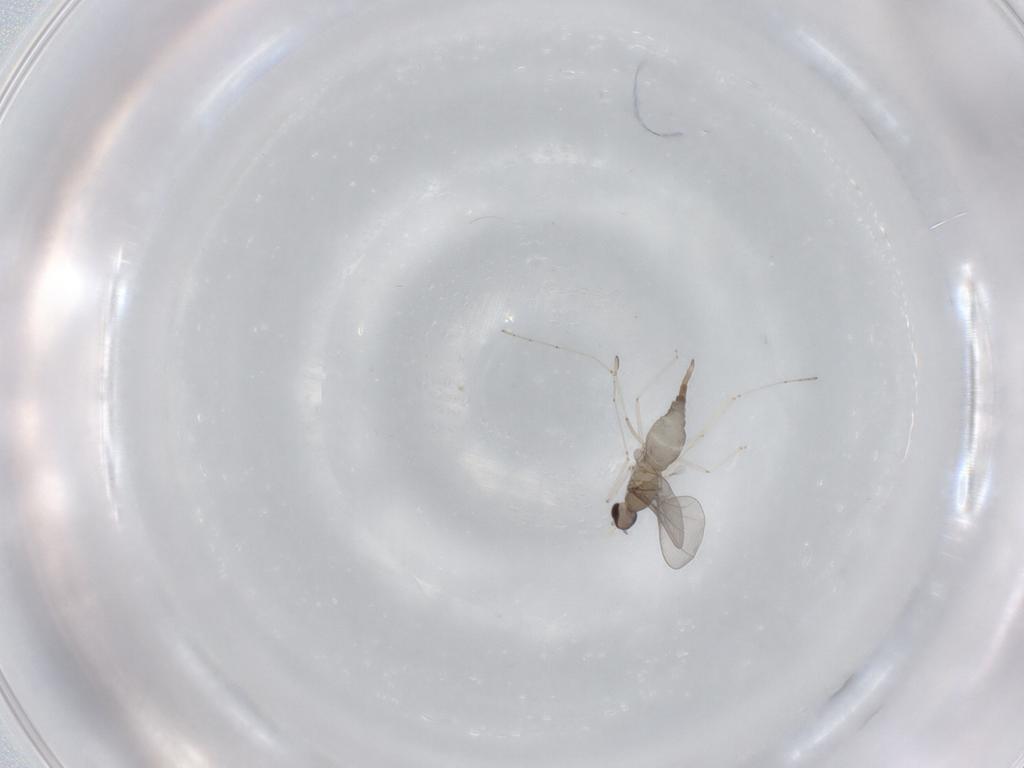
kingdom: Animalia
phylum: Arthropoda
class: Insecta
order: Diptera
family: Cecidomyiidae
